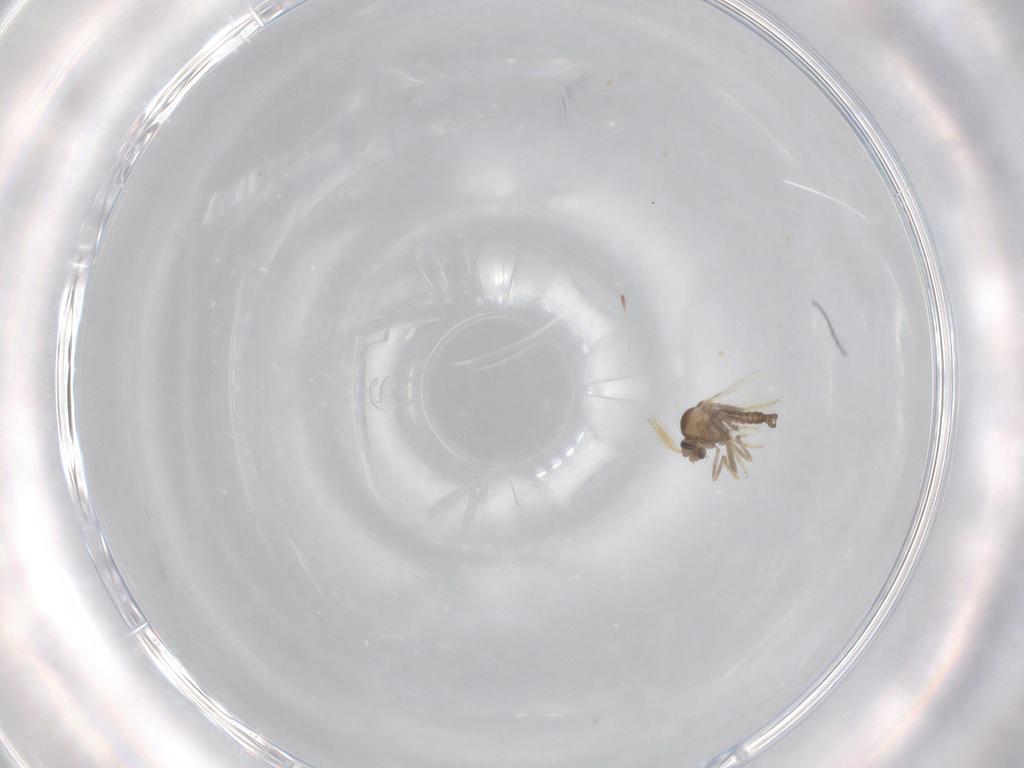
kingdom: Animalia
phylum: Arthropoda
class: Insecta
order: Diptera
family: Ceratopogonidae
